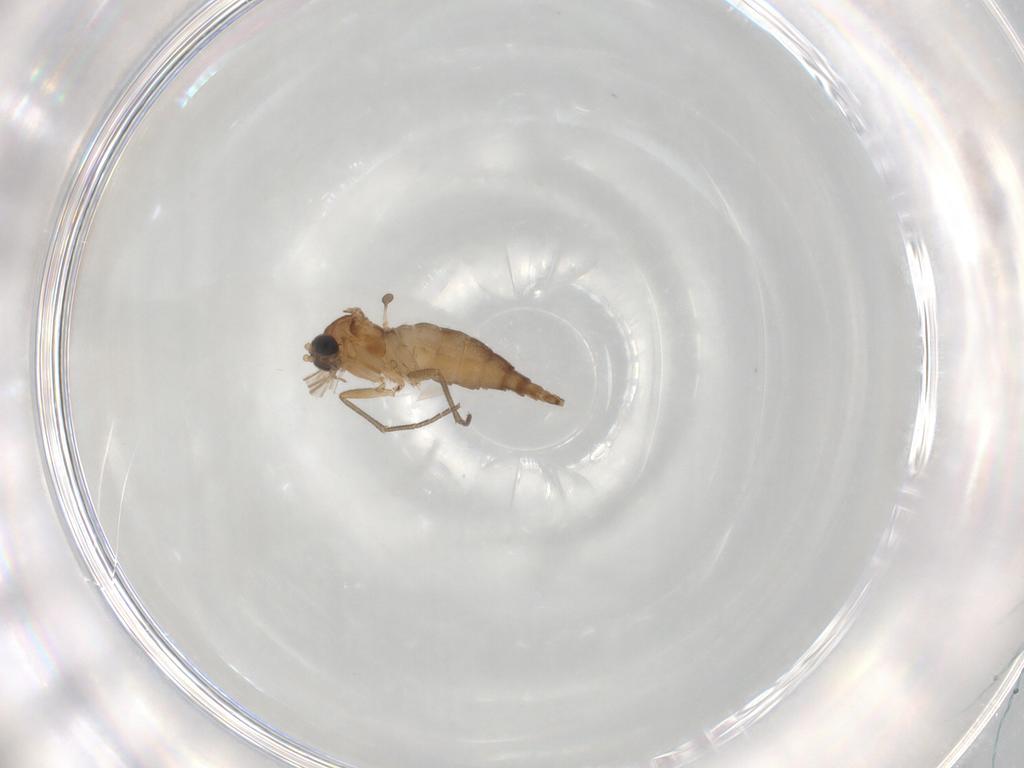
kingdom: Animalia
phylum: Arthropoda
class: Insecta
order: Diptera
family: Sciaridae
